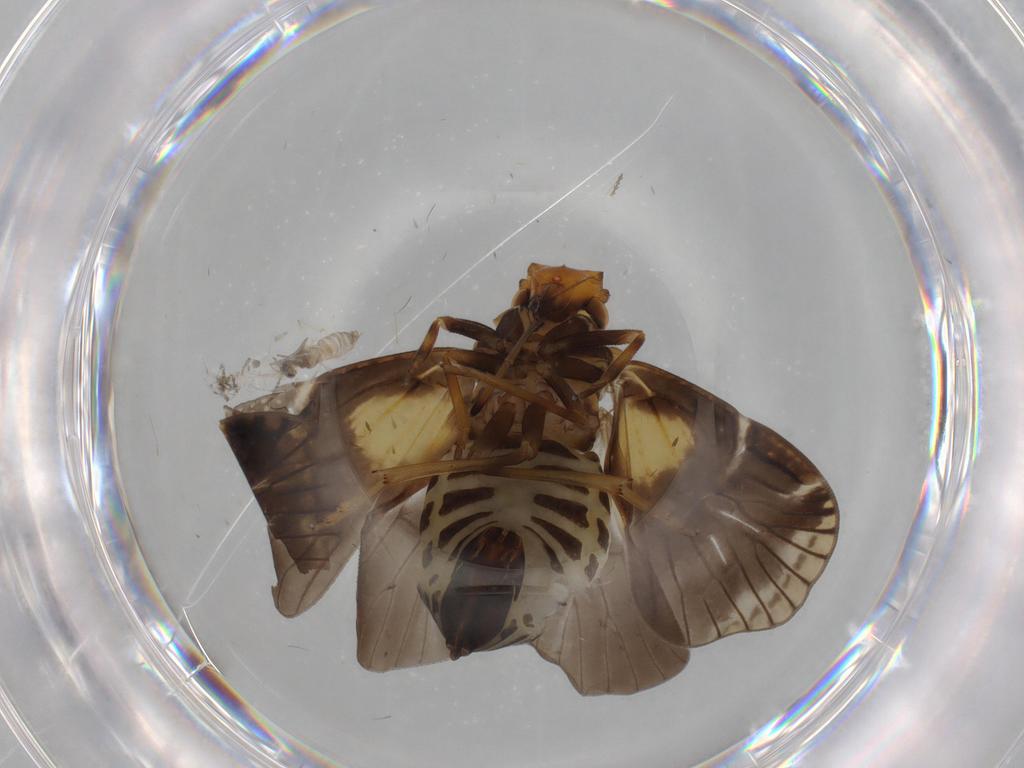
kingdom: Animalia
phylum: Arthropoda
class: Insecta
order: Diptera
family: Cecidomyiidae
